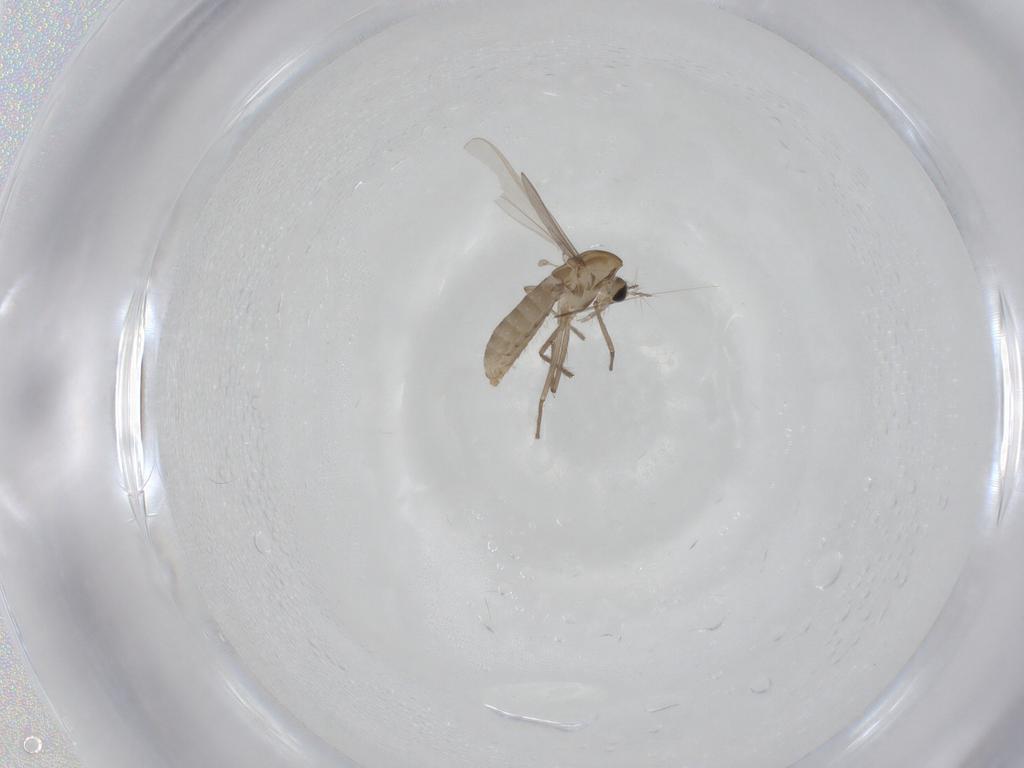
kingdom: Animalia
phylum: Arthropoda
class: Insecta
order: Diptera
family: Chironomidae
